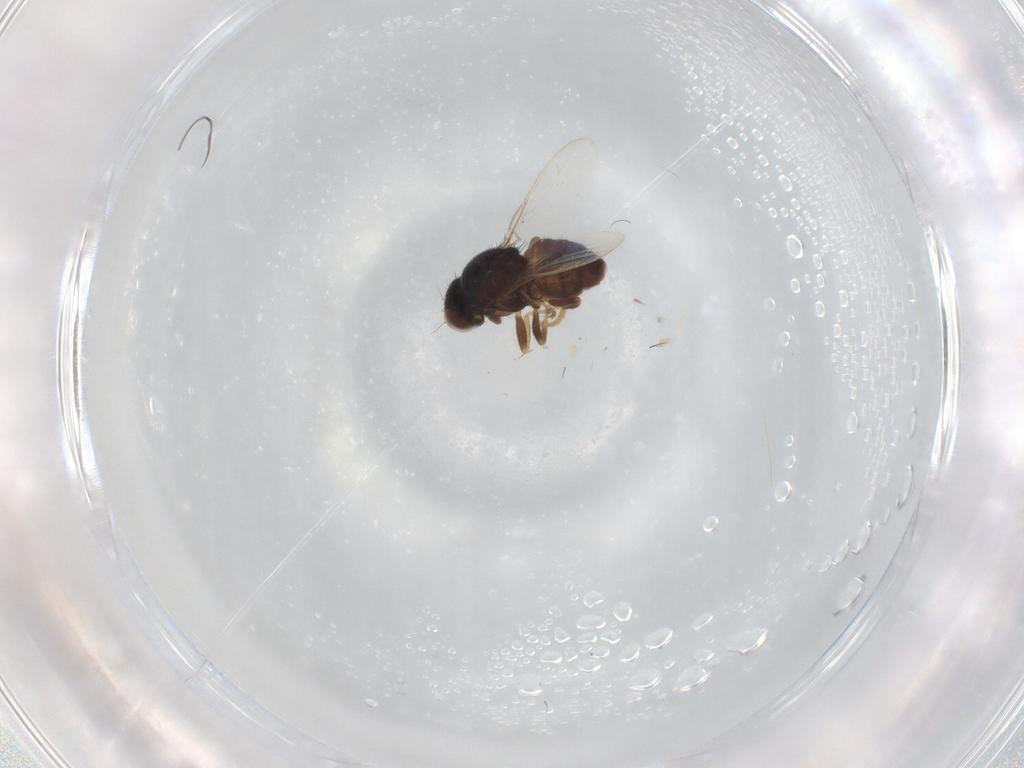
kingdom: Animalia
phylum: Arthropoda
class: Insecta
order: Diptera
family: Chloropidae
